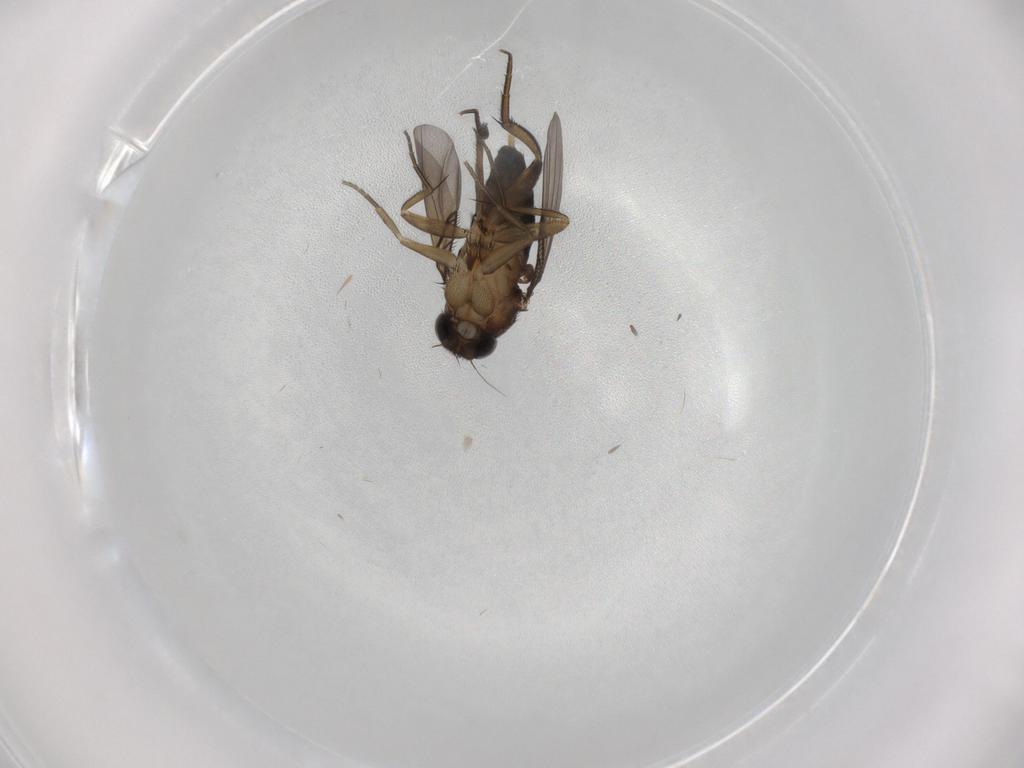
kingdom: Animalia
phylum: Arthropoda
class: Insecta
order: Diptera
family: Phoridae
